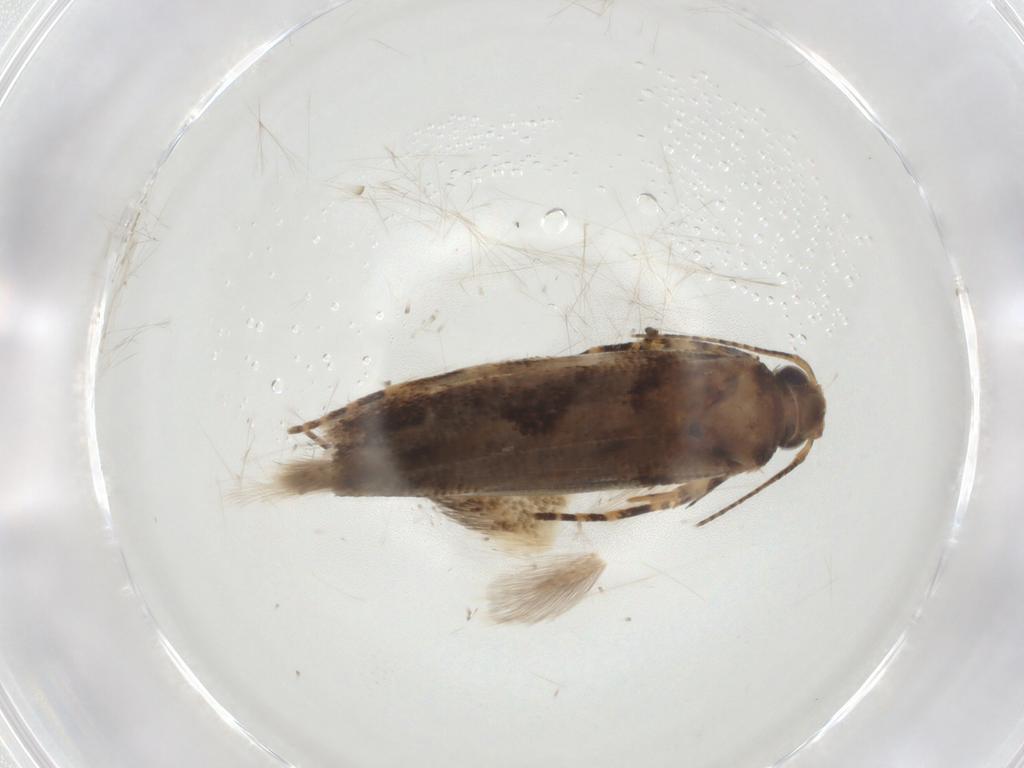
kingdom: Animalia
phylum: Arthropoda
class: Insecta
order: Lepidoptera
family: Gelechiidae
